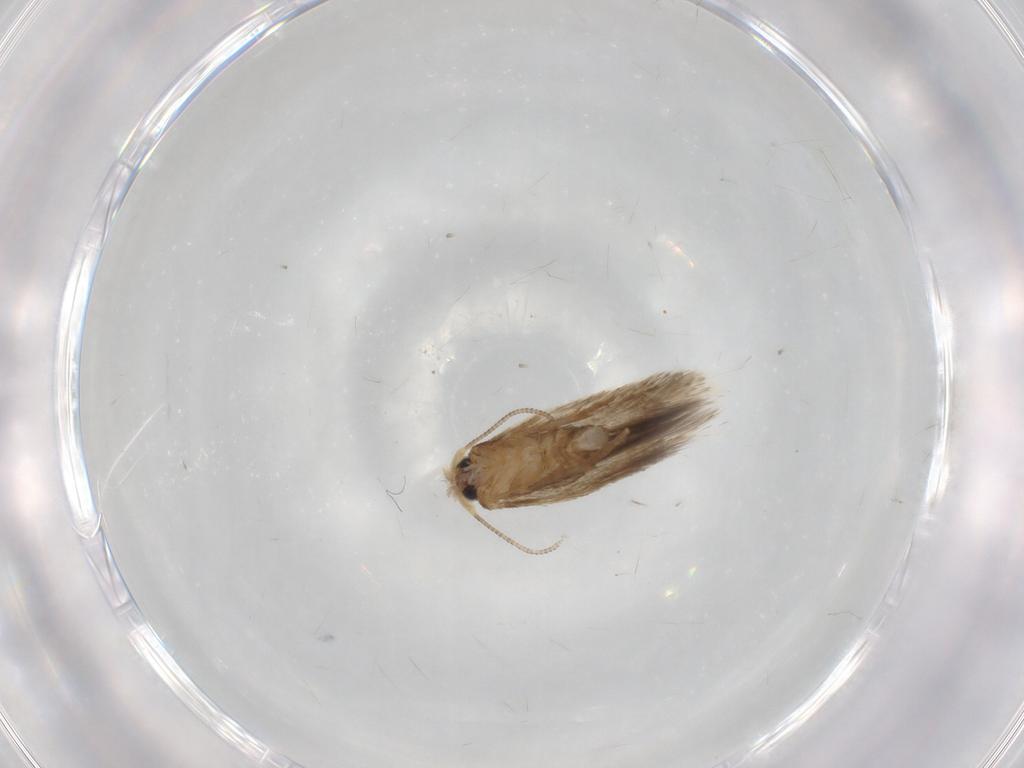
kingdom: Animalia
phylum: Arthropoda
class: Insecta
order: Lepidoptera
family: Nepticulidae
